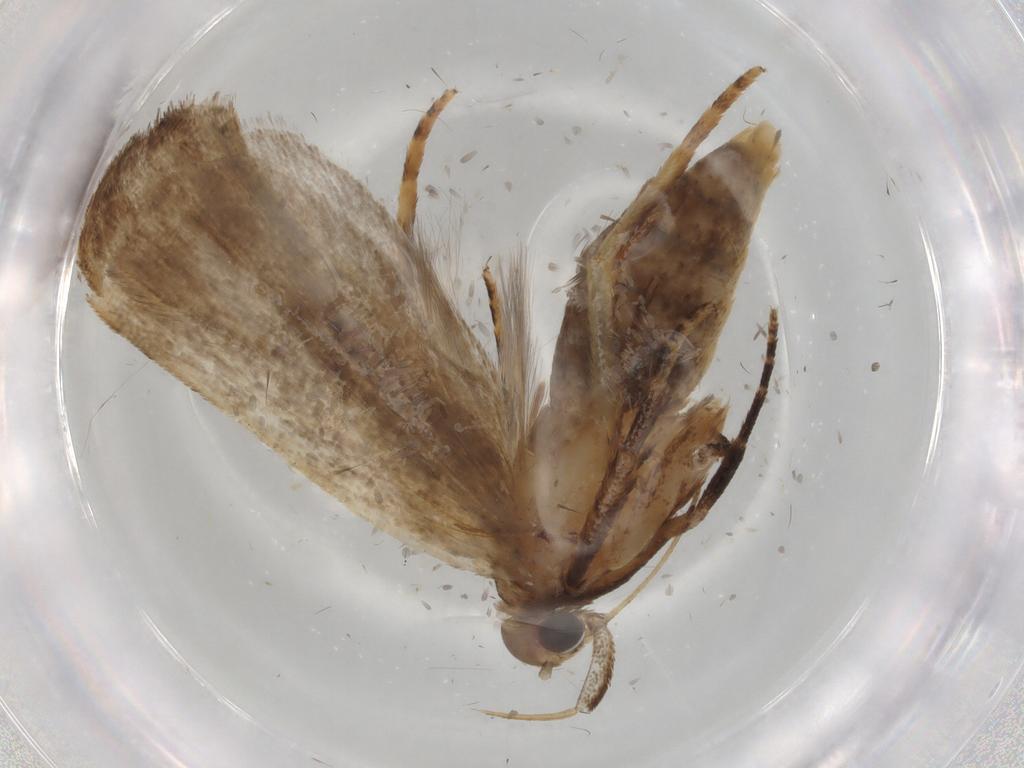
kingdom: Animalia
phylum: Arthropoda
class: Insecta
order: Lepidoptera
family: Gelechiidae
